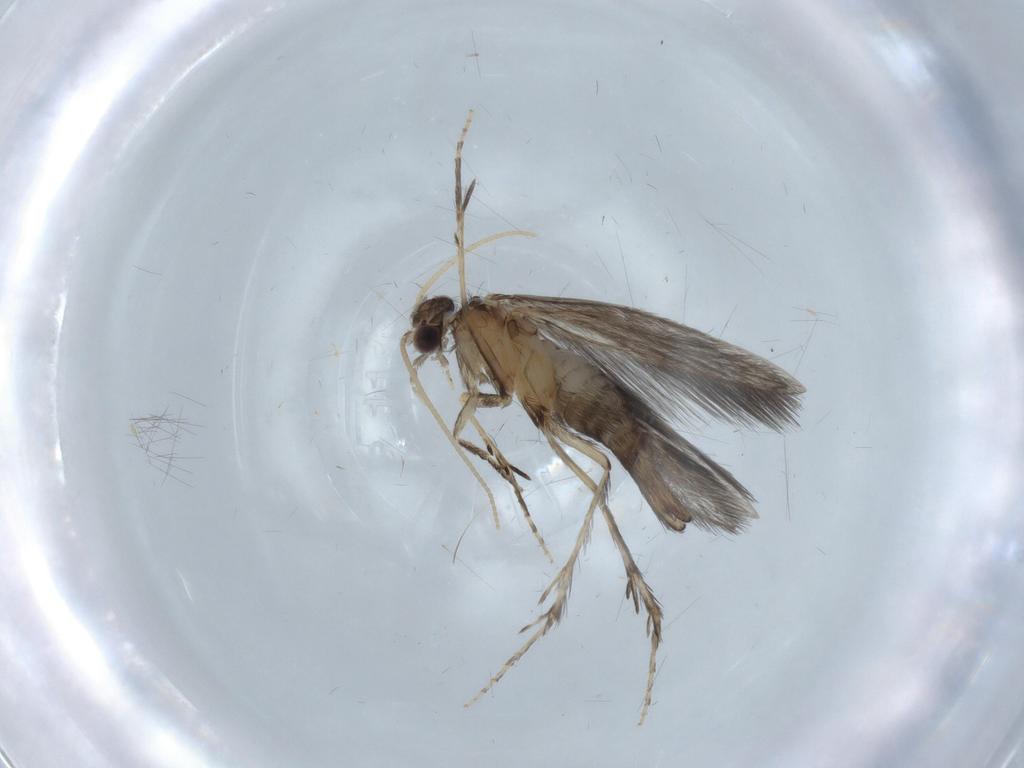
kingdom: Animalia
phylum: Arthropoda
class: Insecta
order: Trichoptera
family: Hydroptilidae
